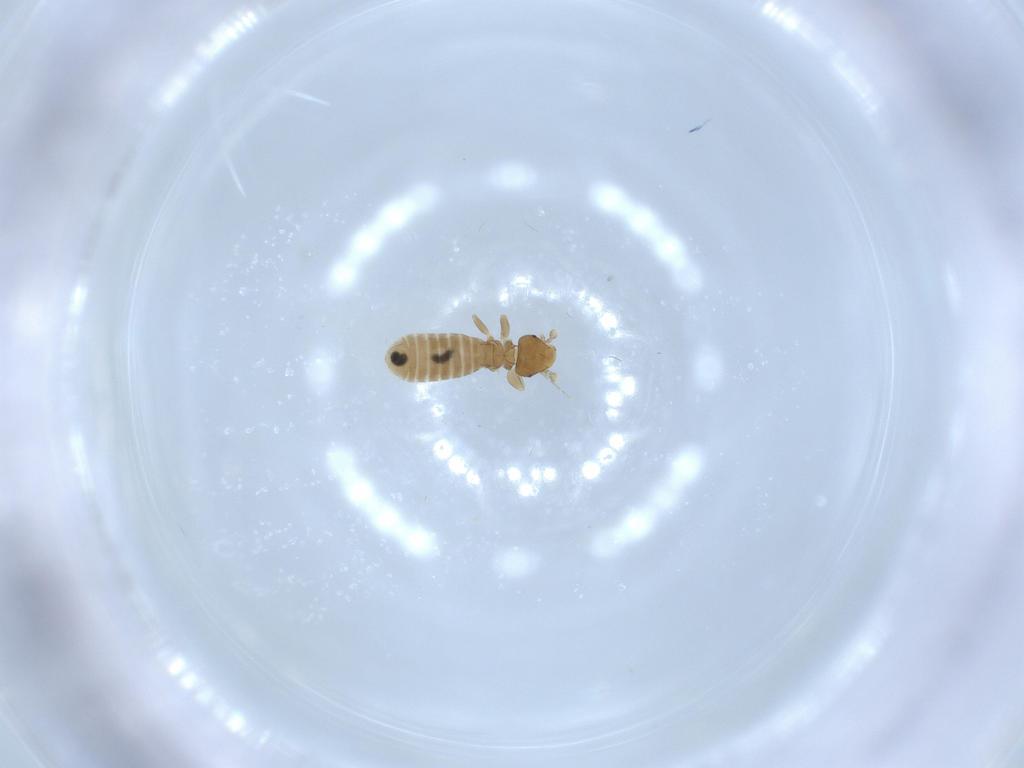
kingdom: Animalia
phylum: Arthropoda
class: Insecta
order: Psocodea
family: Liposcelididae
